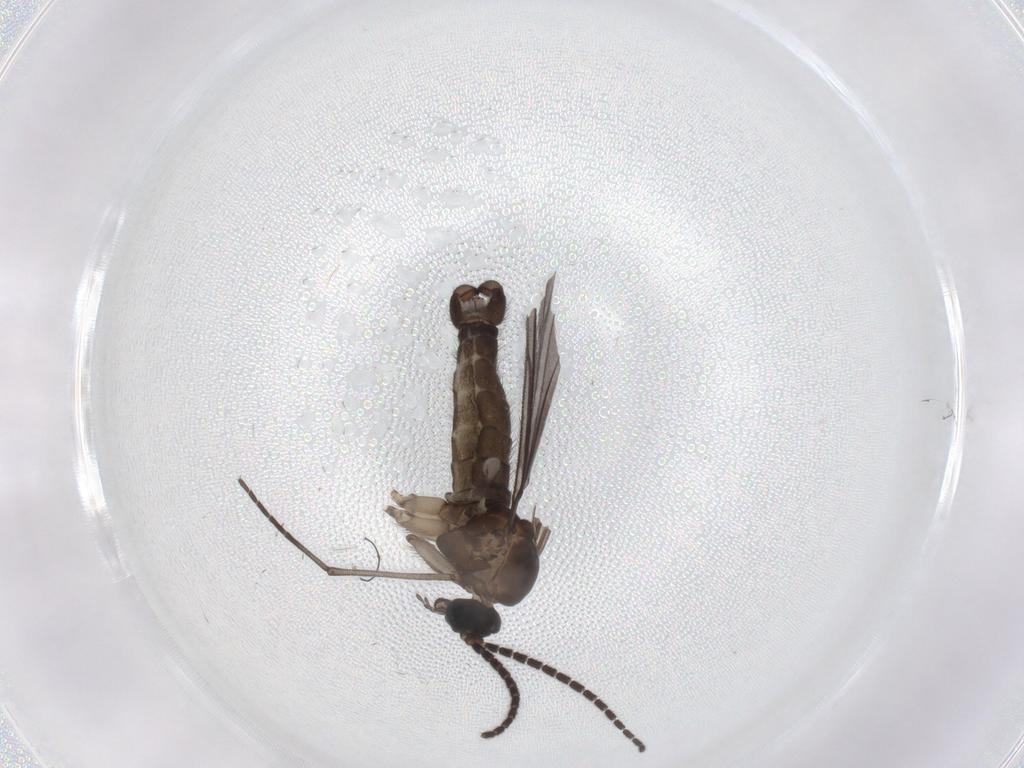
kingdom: Animalia
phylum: Arthropoda
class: Insecta
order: Diptera
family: Sciaridae
